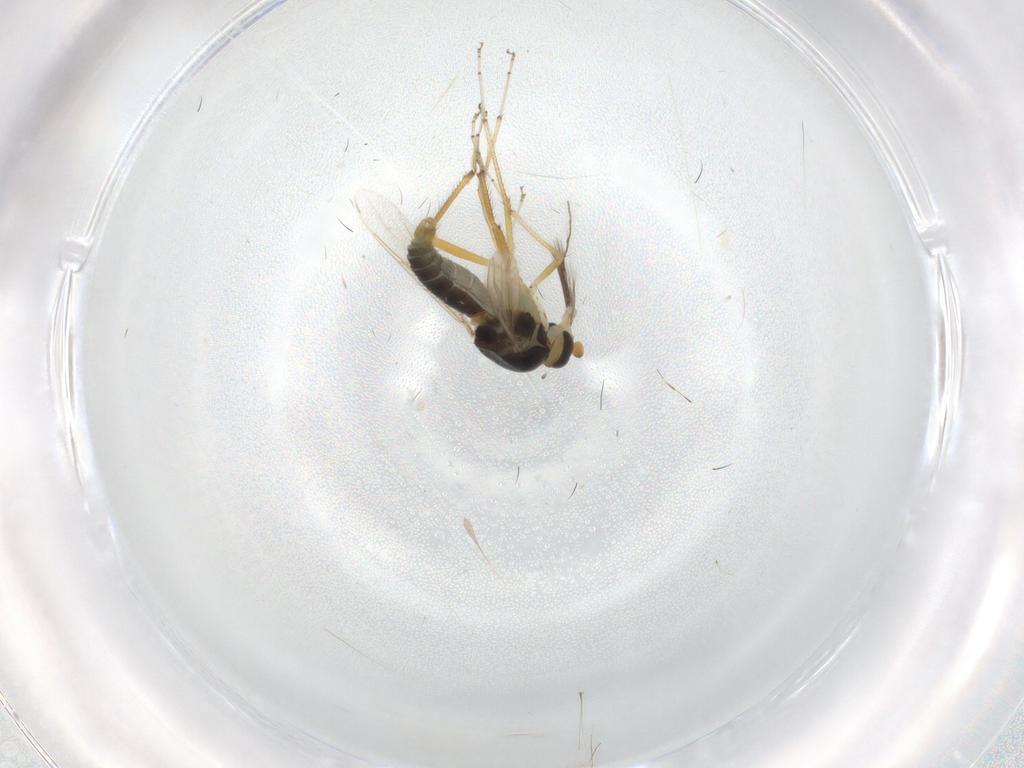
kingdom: Animalia
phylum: Arthropoda
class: Insecta
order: Diptera
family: Ceratopogonidae
